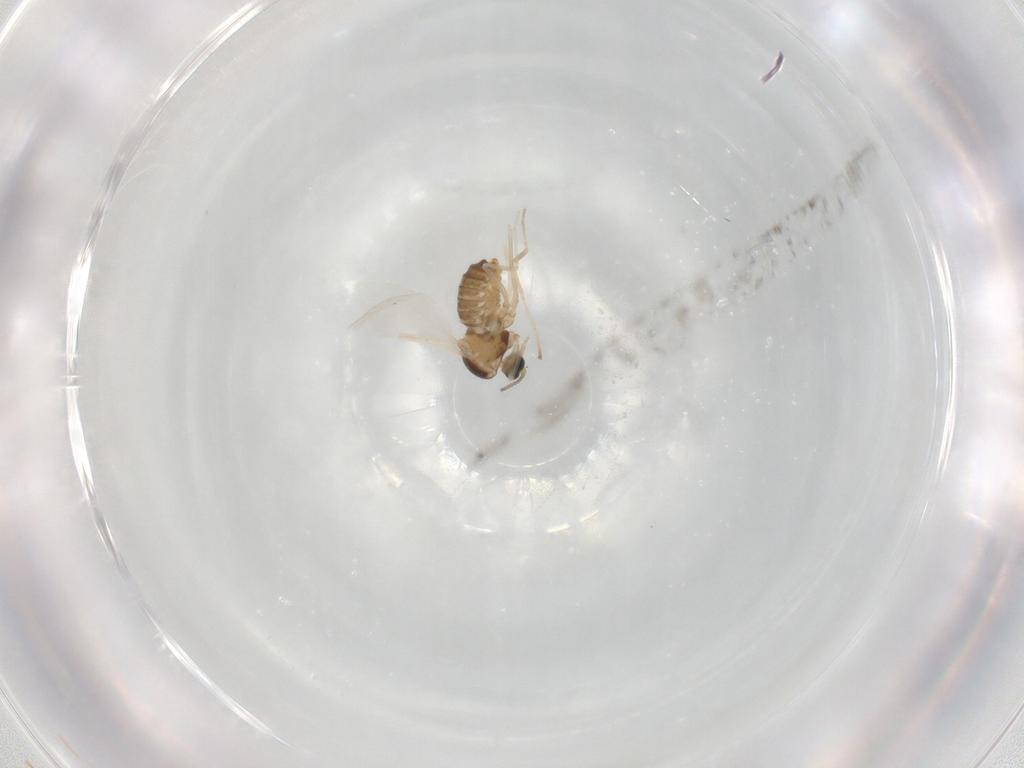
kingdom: Animalia
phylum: Arthropoda
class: Insecta
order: Diptera
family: Cecidomyiidae
